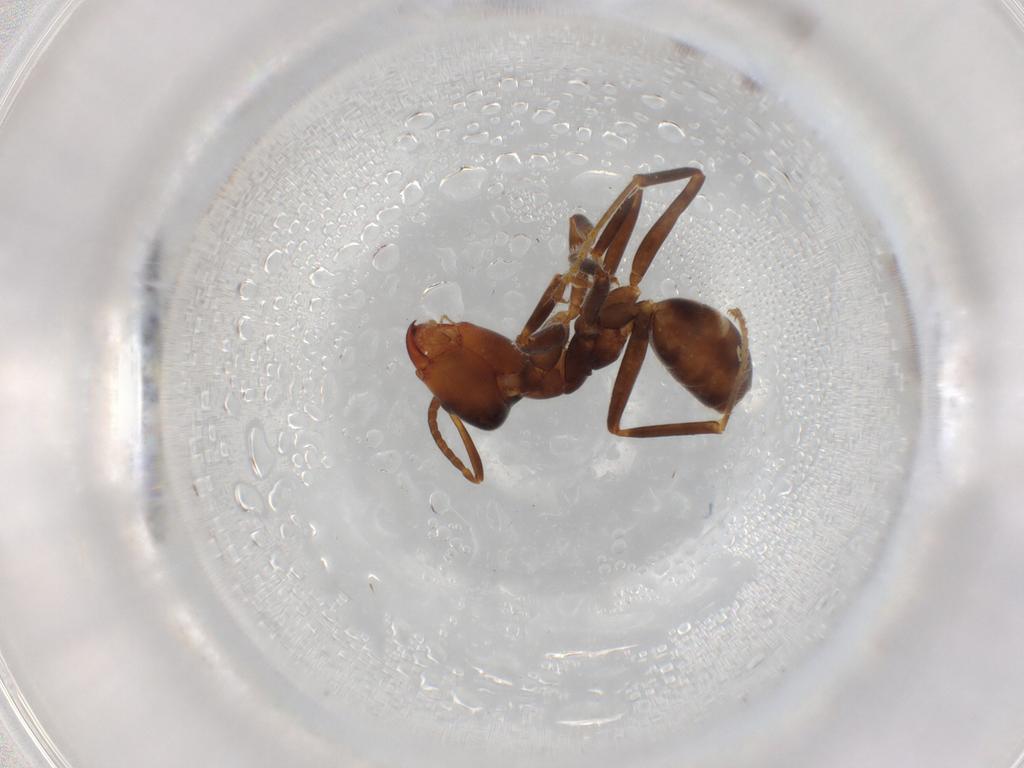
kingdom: Animalia
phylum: Arthropoda
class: Insecta
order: Hymenoptera
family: Formicidae
